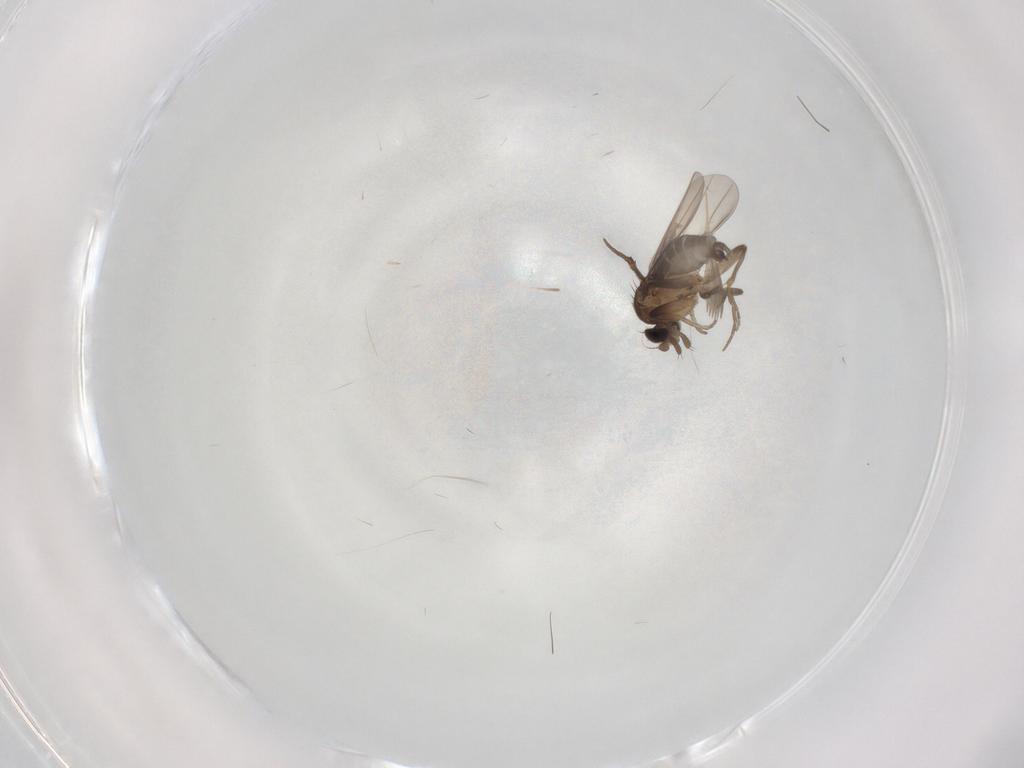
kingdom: Animalia
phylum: Arthropoda
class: Insecta
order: Diptera
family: Phoridae
